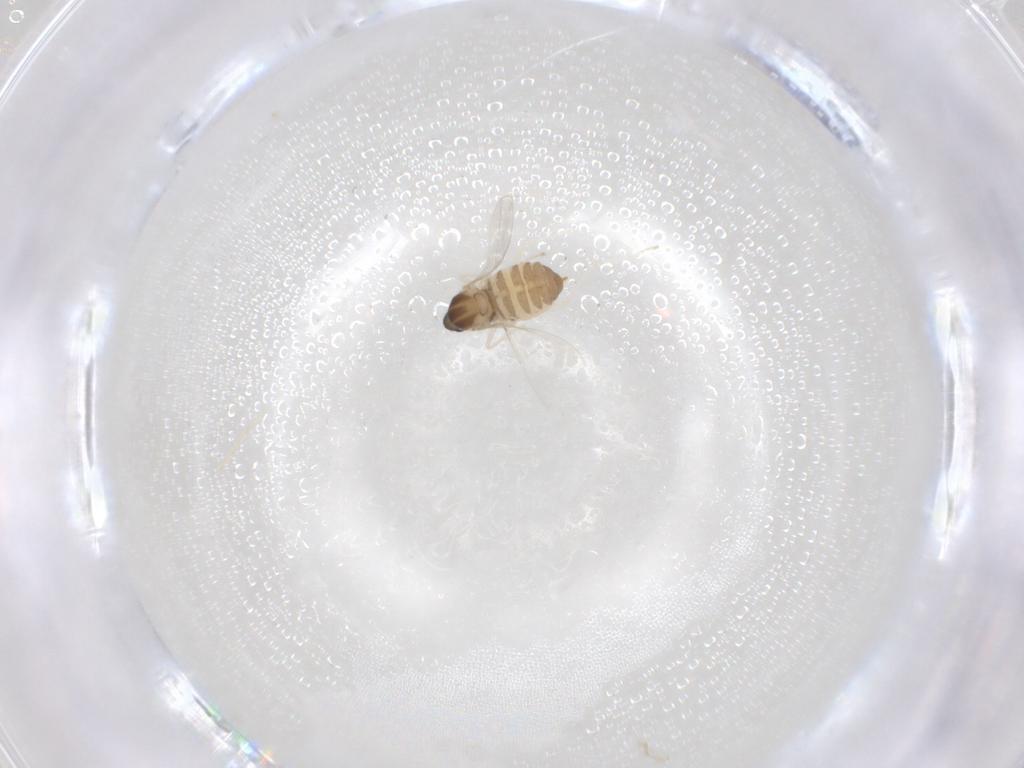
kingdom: Animalia
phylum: Arthropoda
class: Insecta
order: Diptera
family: Cecidomyiidae
